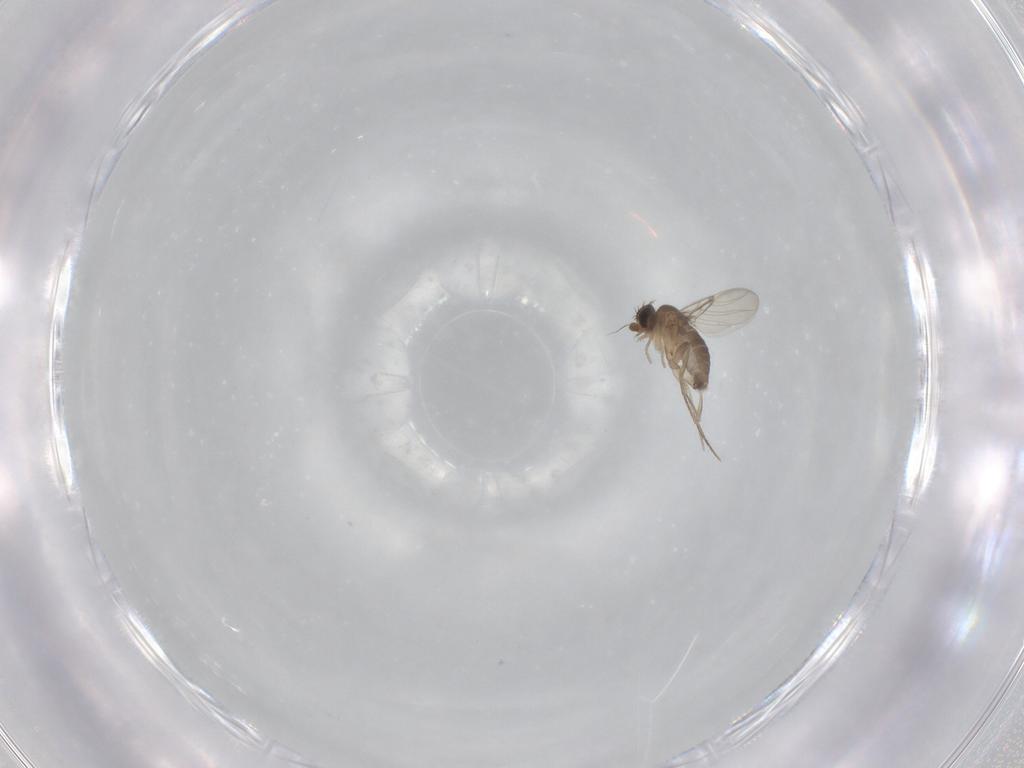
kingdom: Animalia
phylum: Arthropoda
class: Insecta
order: Diptera
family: Phoridae
